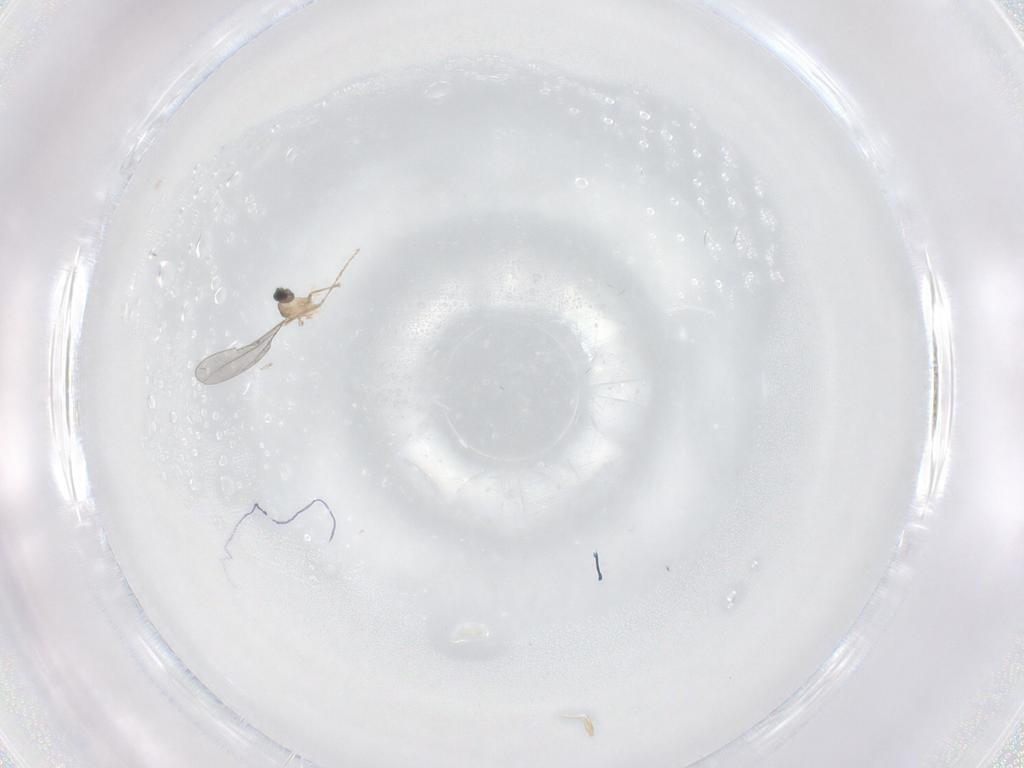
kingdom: Animalia
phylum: Arthropoda
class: Insecta
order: Diptera
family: Cecidomyiidae
